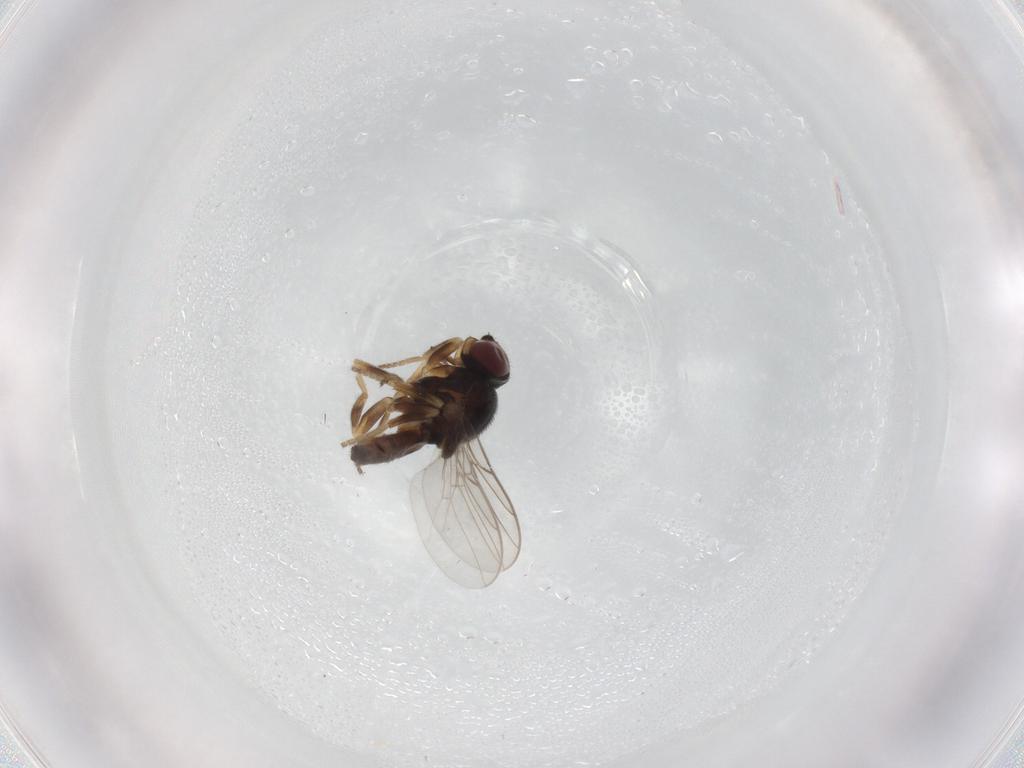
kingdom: Animalia
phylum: Arthropoda
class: Insecta
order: Diptera
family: Chloropidae
